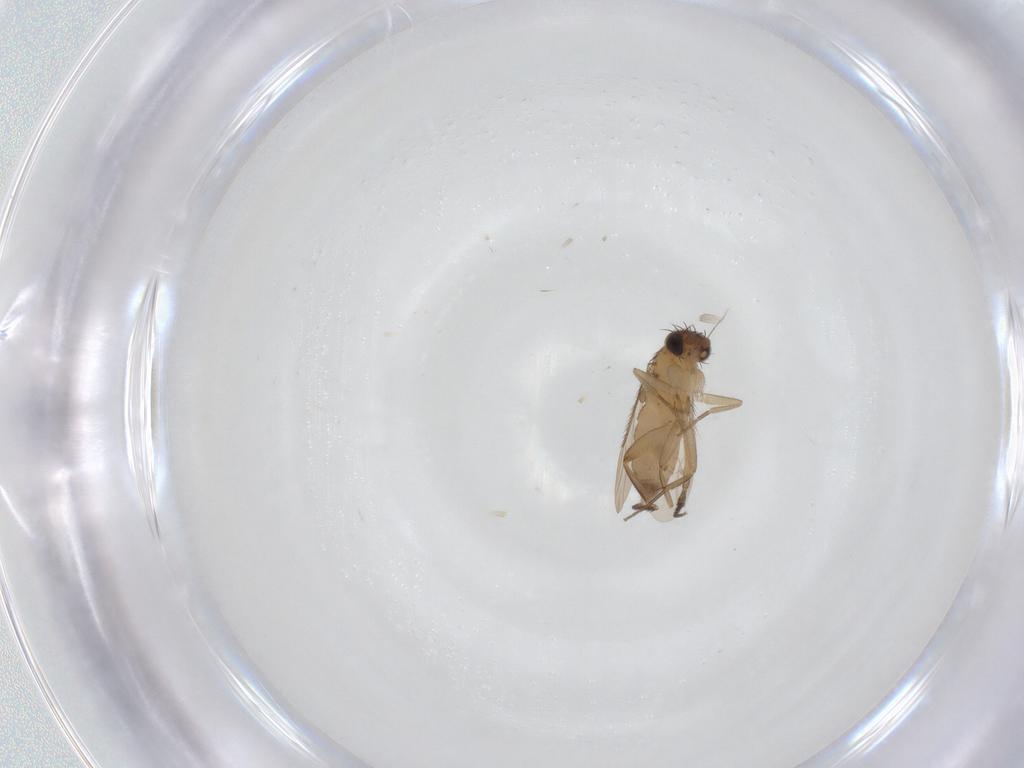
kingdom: Animalia
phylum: Arthropoda
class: Insecta
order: Diptera
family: Phoridae
